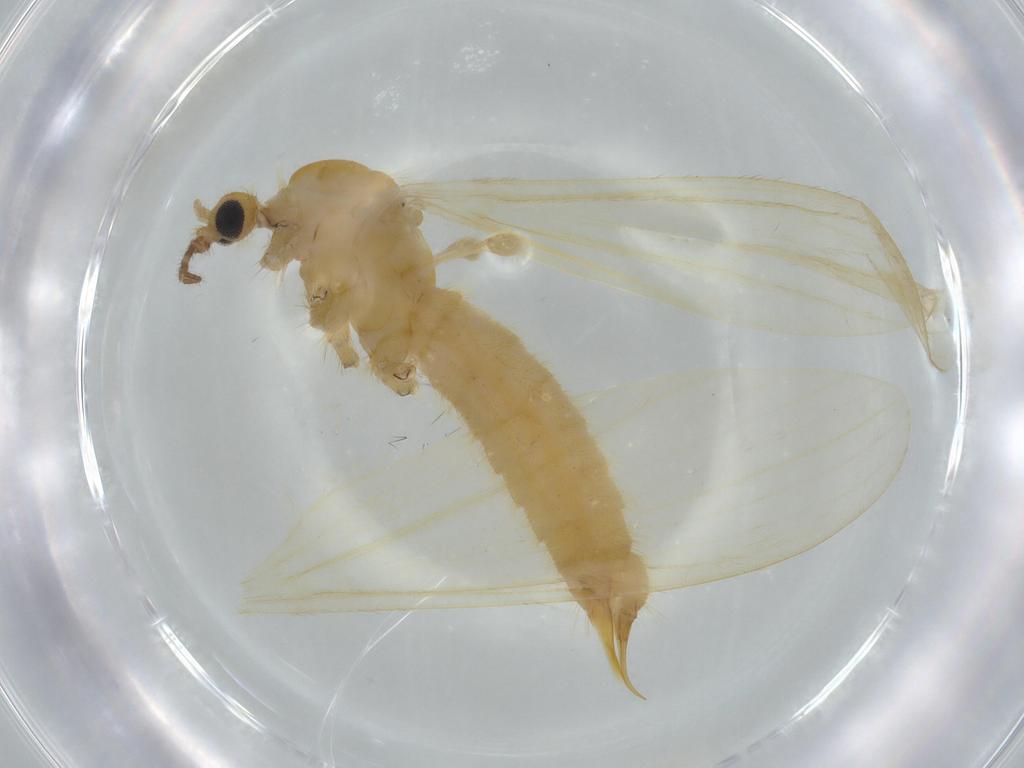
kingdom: Animalia
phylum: Arthropoda
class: Insecta
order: Diptera
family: Limoniidae
